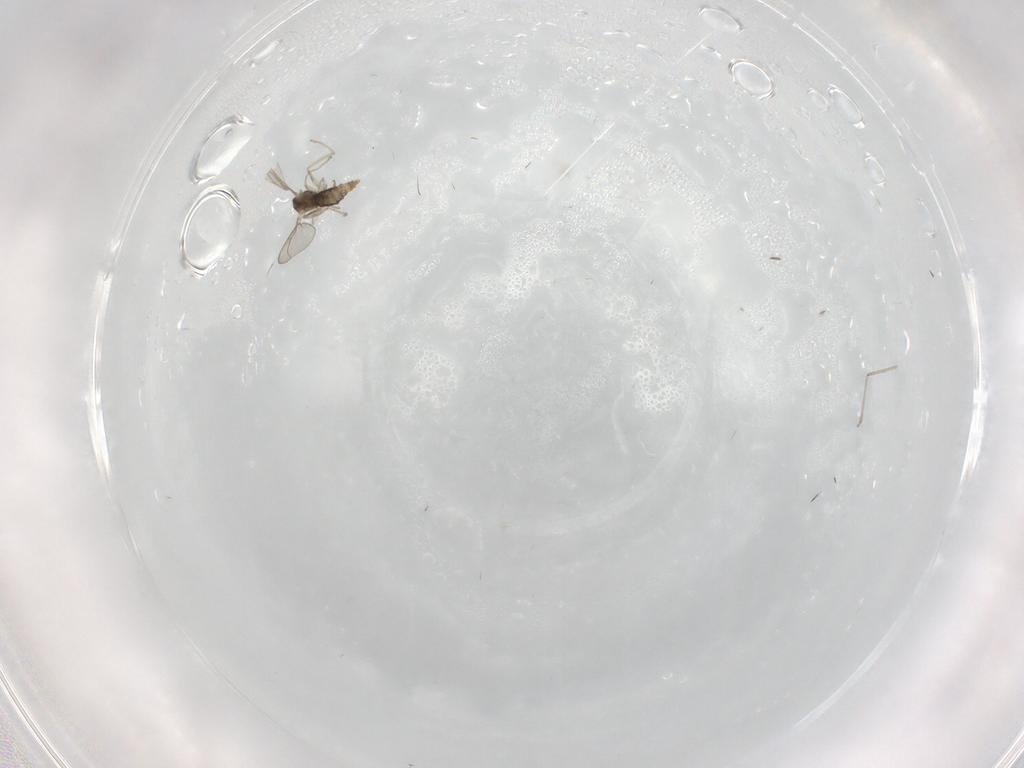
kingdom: Animalia
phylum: Arthropoda
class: Insecta
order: Diptera
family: Cecidomyiidae
